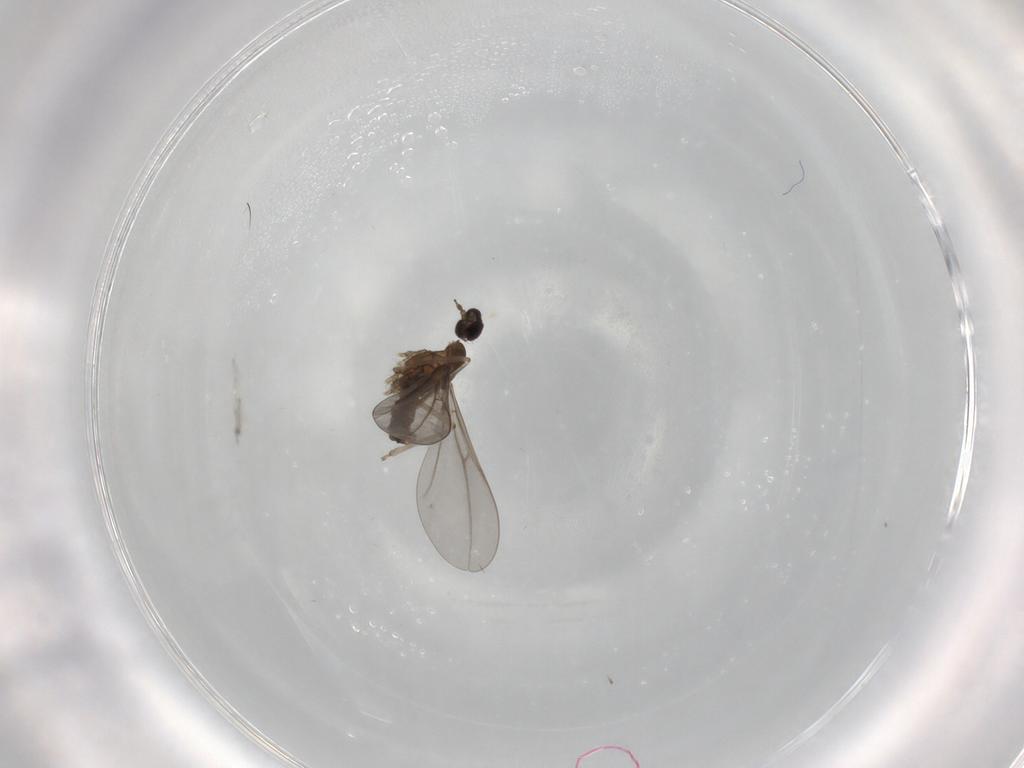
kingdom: Animalia
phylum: Arthropoda
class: Insecta
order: Diptera
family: Cecidomyiidae
